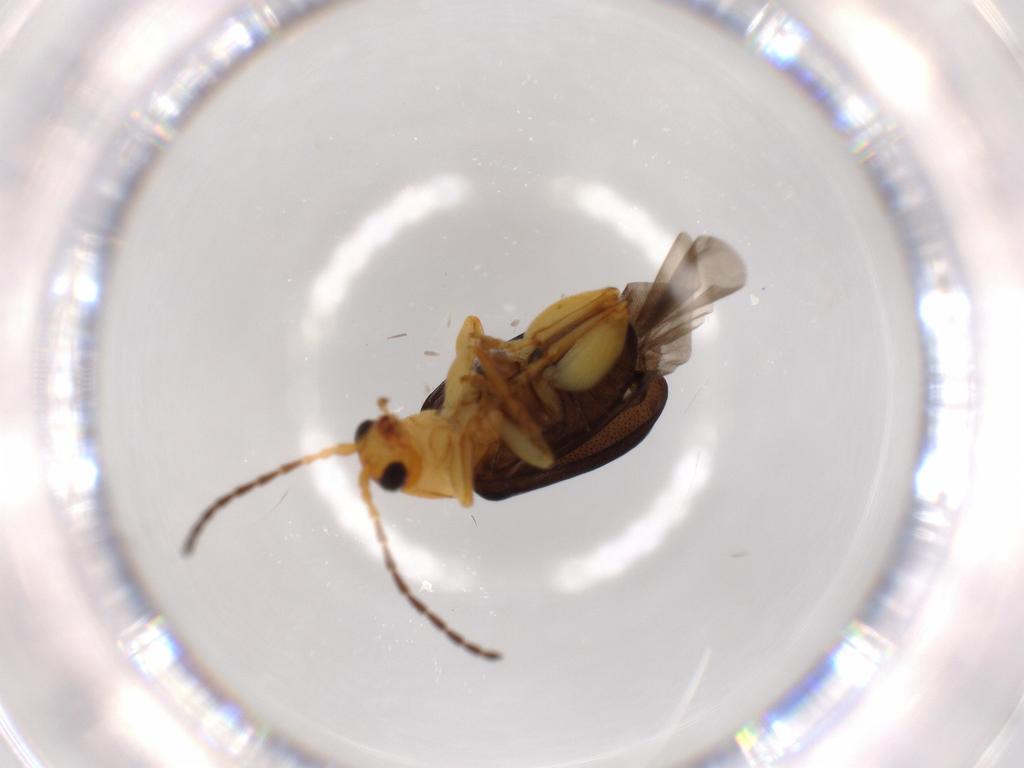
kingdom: Animalia
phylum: Arthropoda
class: Insecta
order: Coleoptera
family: Chrysomelidae
